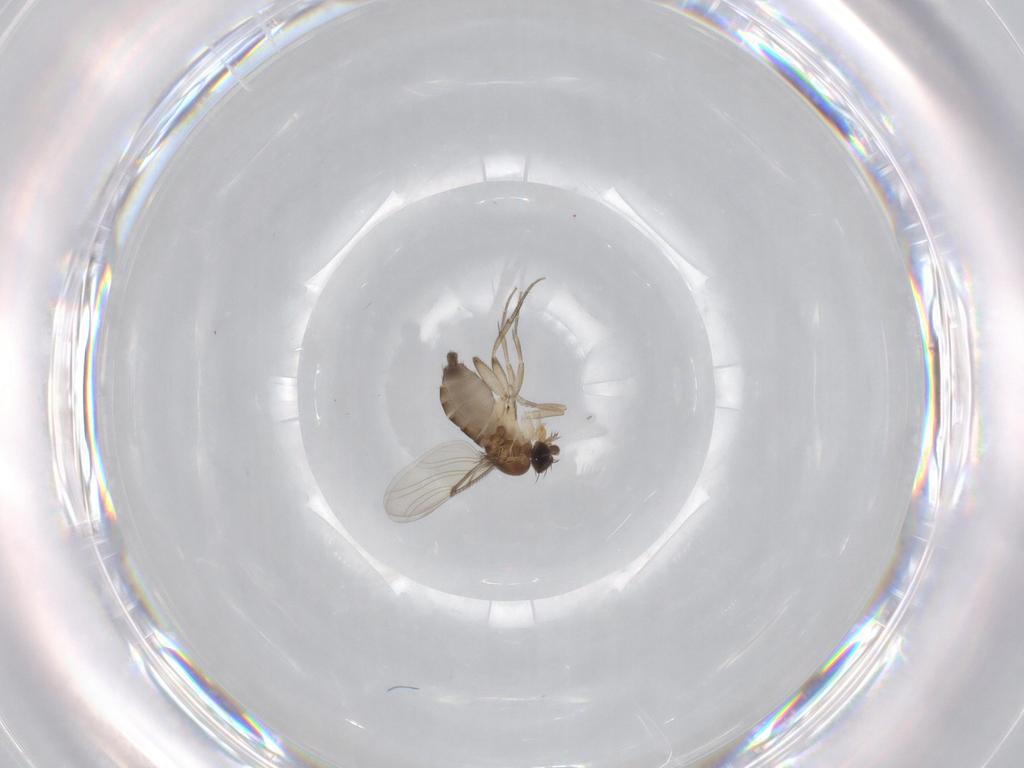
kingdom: Animalia
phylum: Arthropoda
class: Insecta
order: Diptera
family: Phoridae
